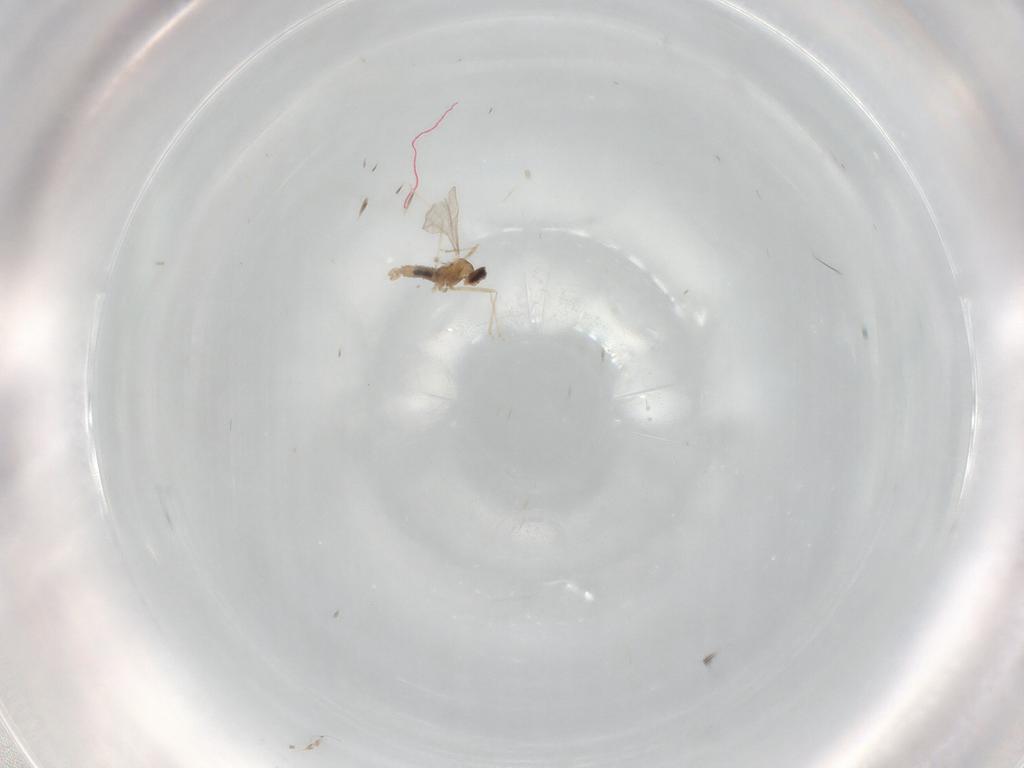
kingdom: Animalia
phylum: Arthropoda
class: Insecta
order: Diptera
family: Cecidomyiidae
